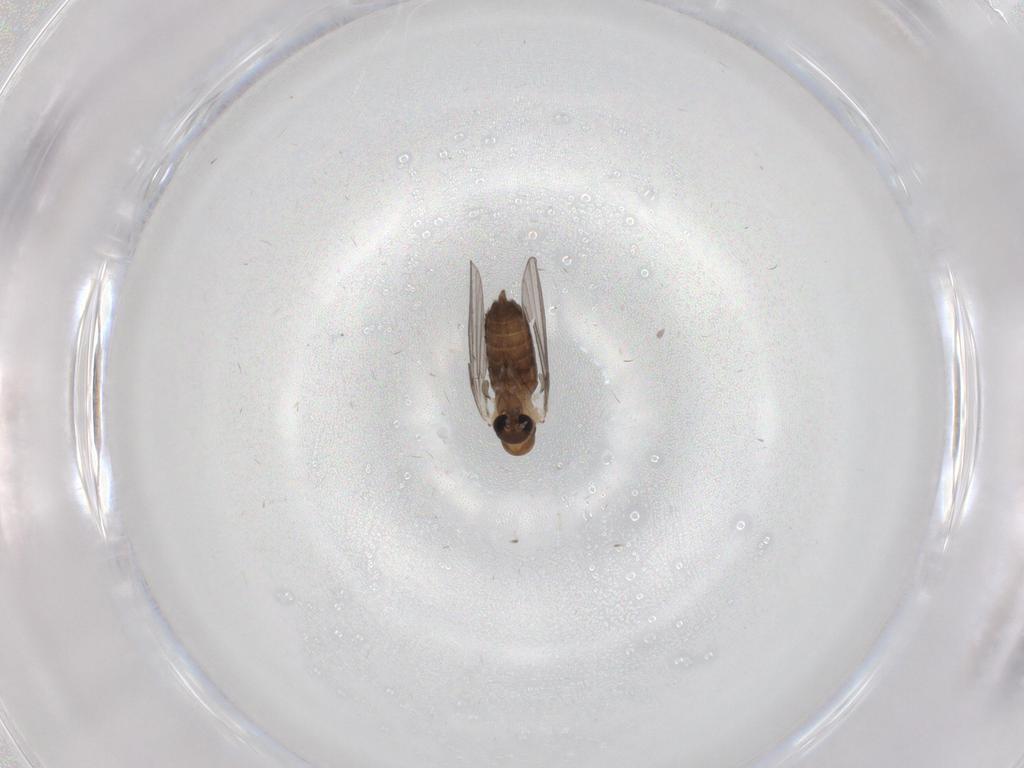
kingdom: Animalia
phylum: Arthropoda
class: Insecta
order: Diptera
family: Psychodidae
